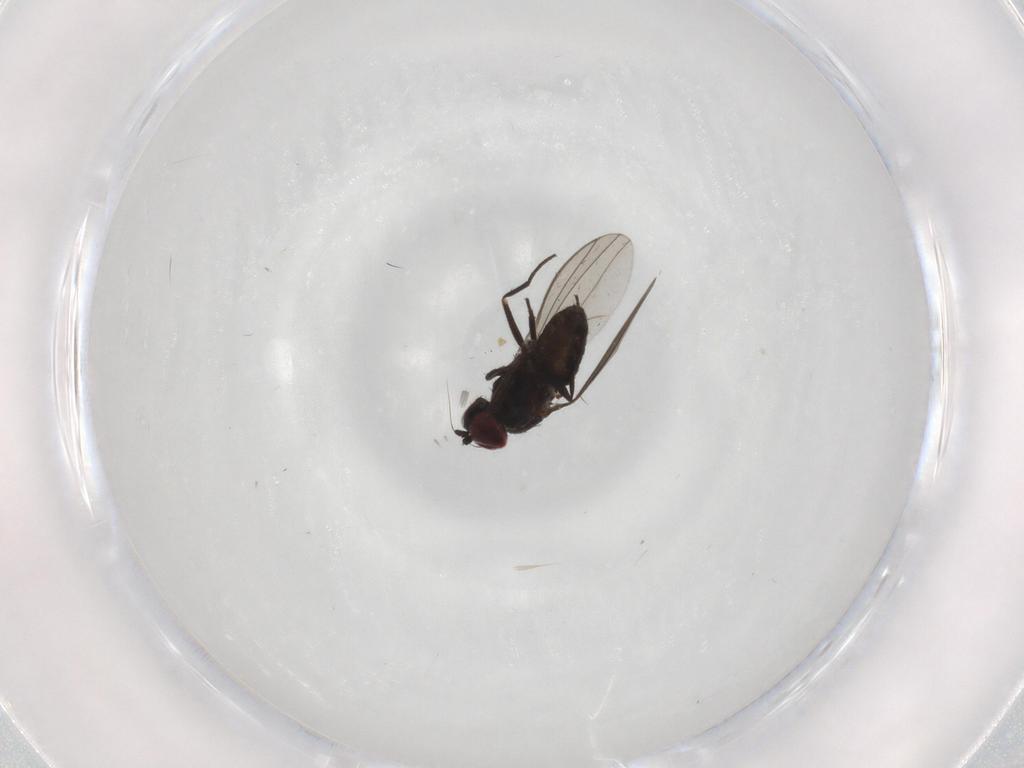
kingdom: Animalia
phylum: Arthropoda
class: Insecta
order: Diptera
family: Dolichopodidae
